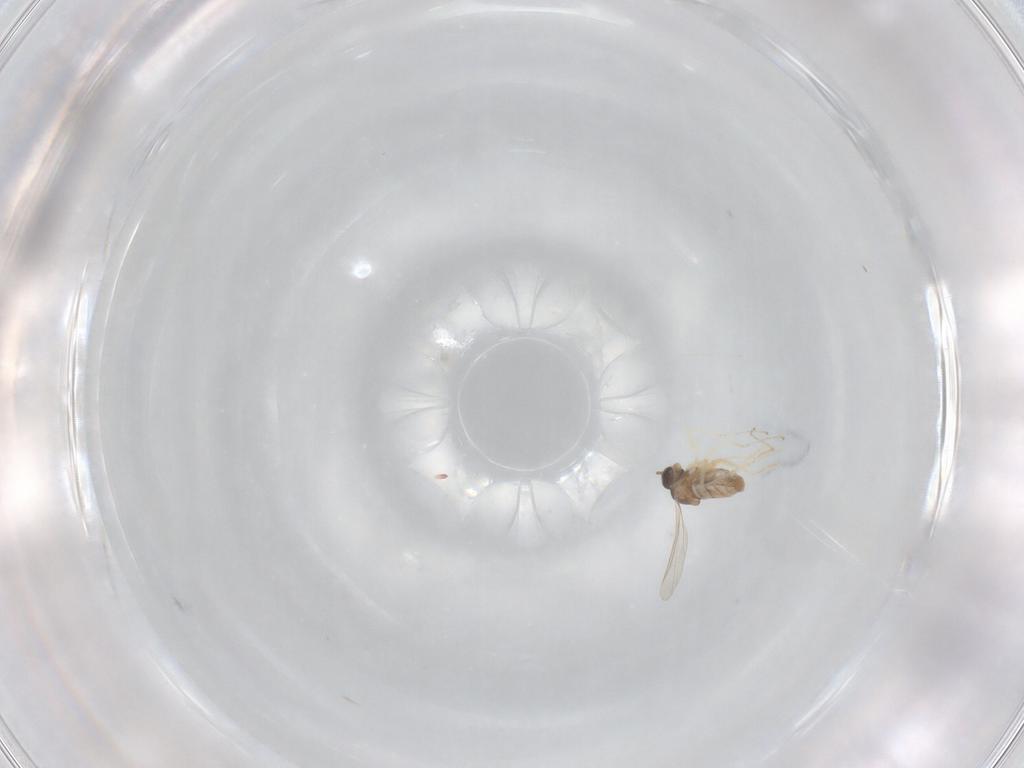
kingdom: Animalia
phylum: Arthropoda
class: Insecta
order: Diptera
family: Cecidomyiidae
